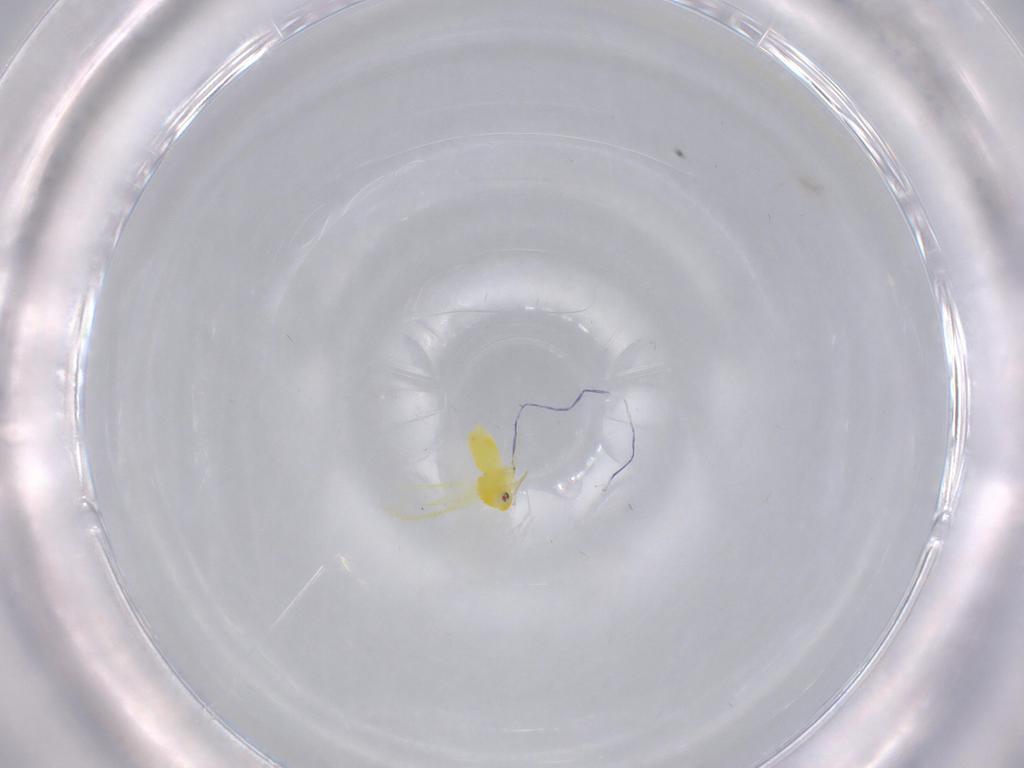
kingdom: Animalia
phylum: Arthropoda
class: Insecta
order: Hemiptera
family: Aleyrodidae
